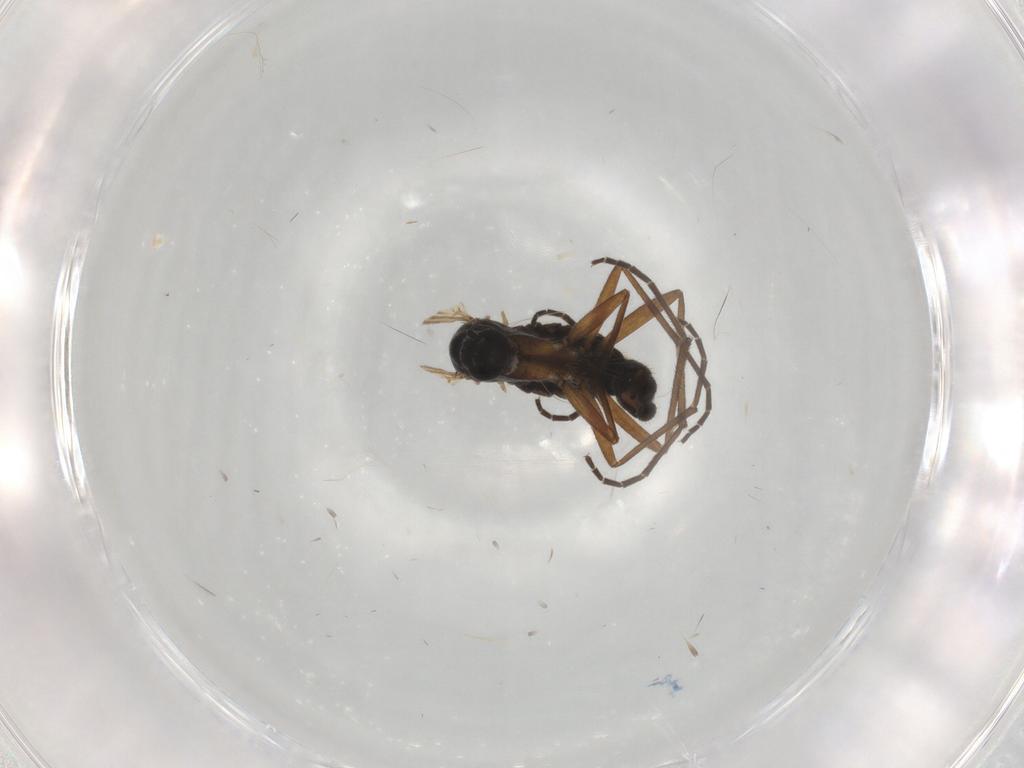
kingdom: Animalia
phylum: Arthropoda
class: Insecta
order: Diptera
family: Sciaridae
